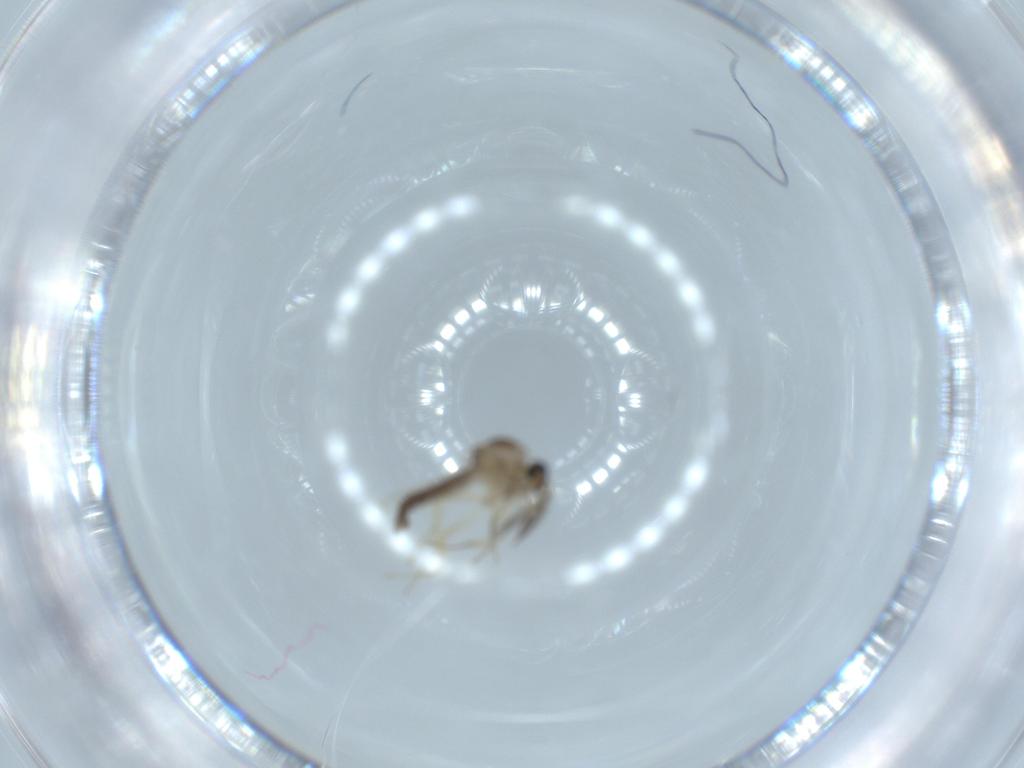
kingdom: Animalia
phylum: Arthropoda
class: Insecta
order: Diptera
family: Ceratopogonidae
